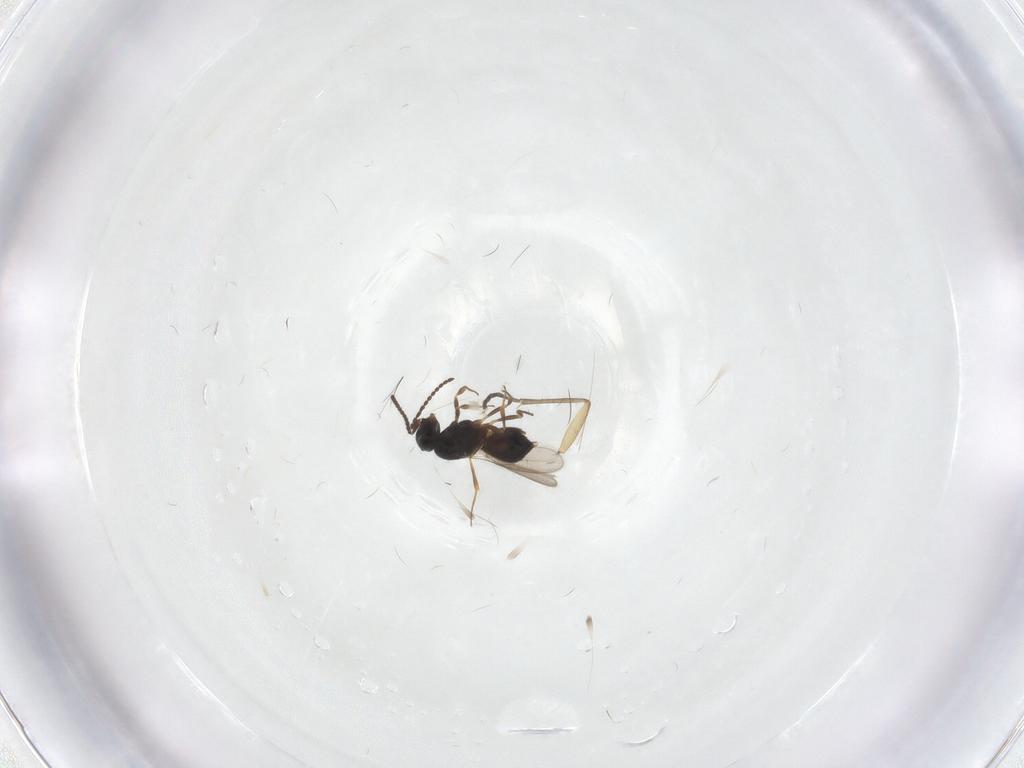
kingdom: Animalia
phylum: Arthropoda
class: Insecta
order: Hymenoptera
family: Scelionidae
